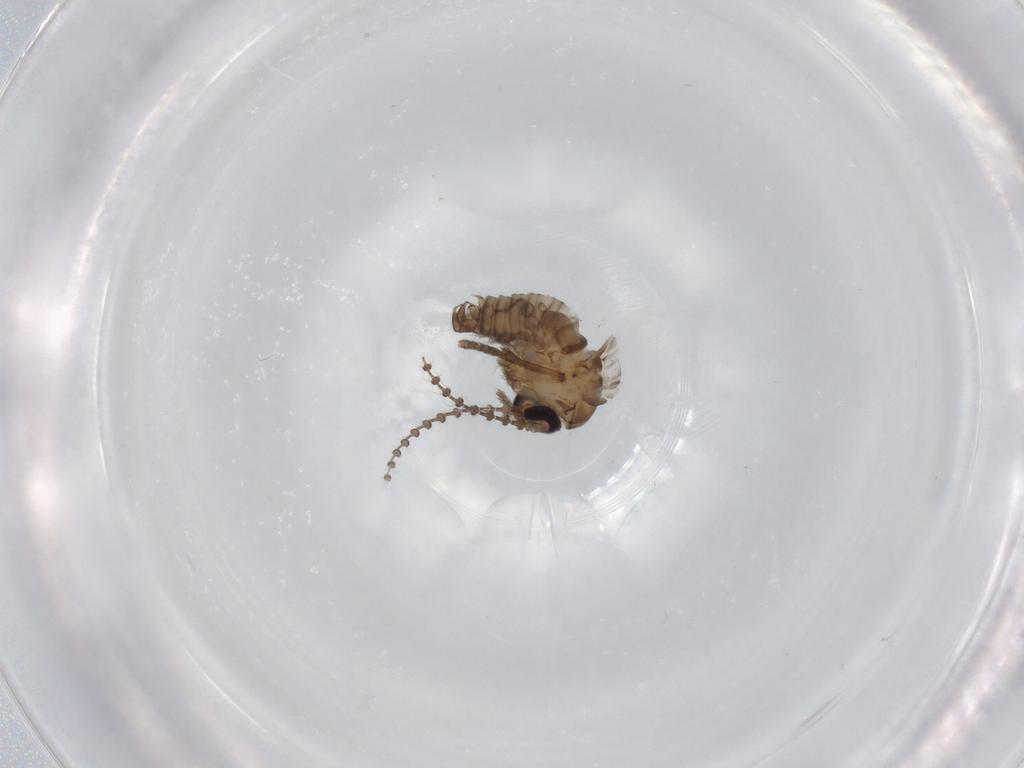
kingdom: Animalia
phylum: Arthropoda
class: Insecta
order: Diptera
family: Psychodidae
